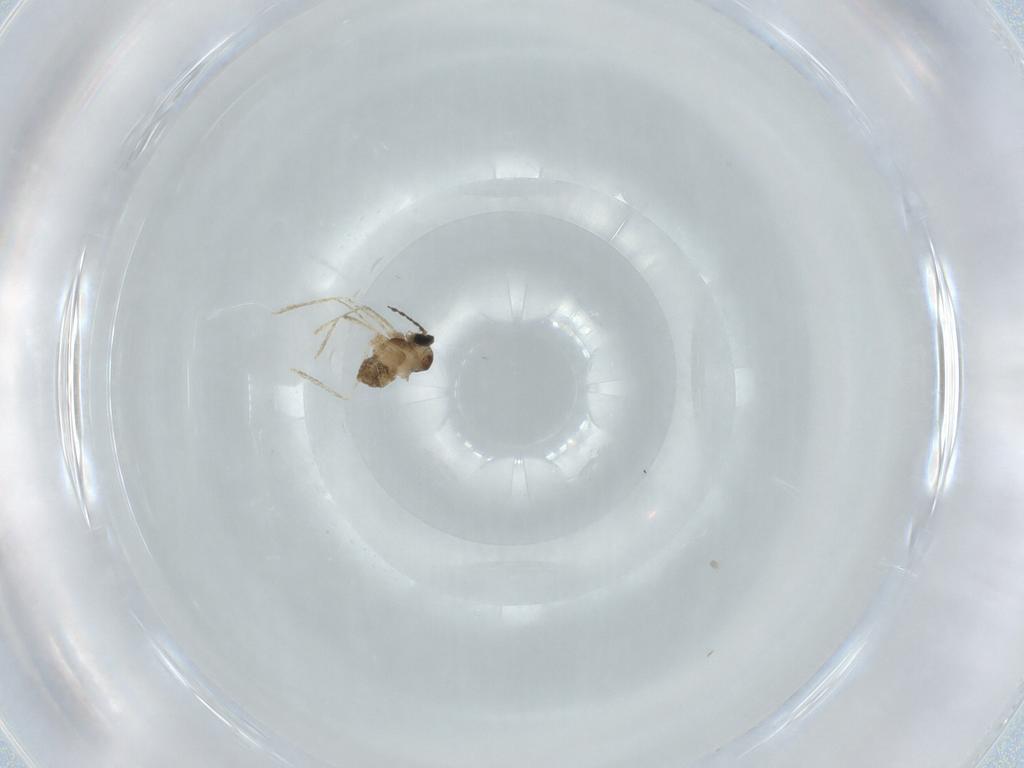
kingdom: Animalia
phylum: Arthropoda
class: Insecta
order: Diptera
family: Cecidomyiidae
